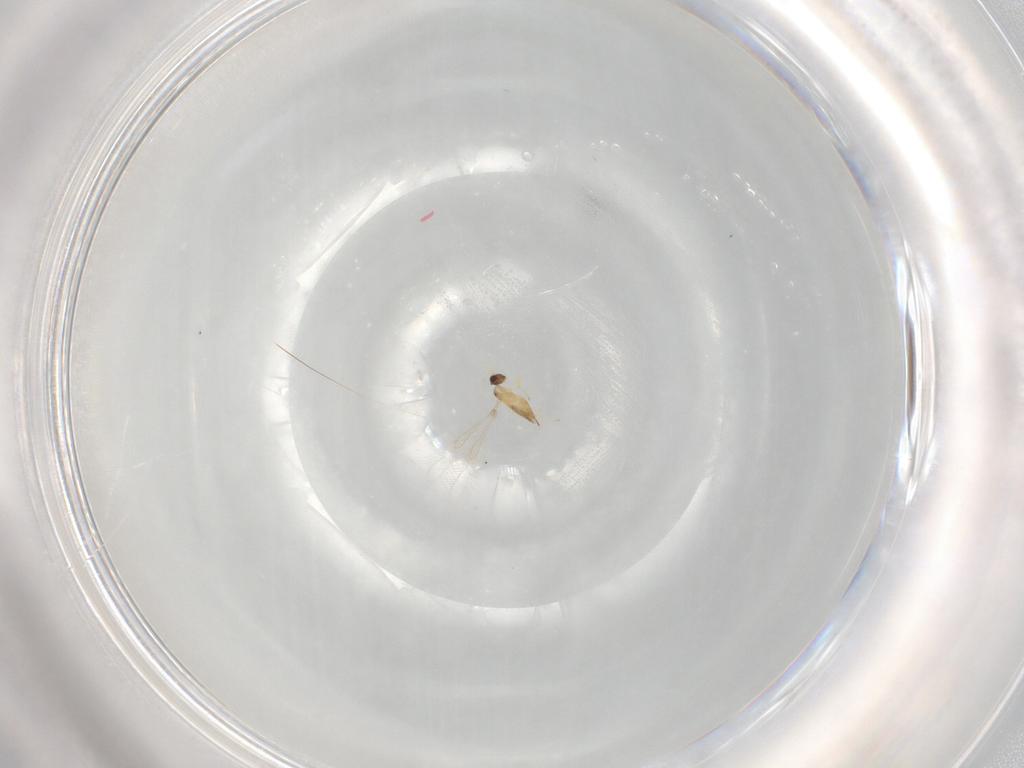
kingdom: Animalia
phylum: Arthropoda
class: Insecta
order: Hymenoptera
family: Mymaridae
